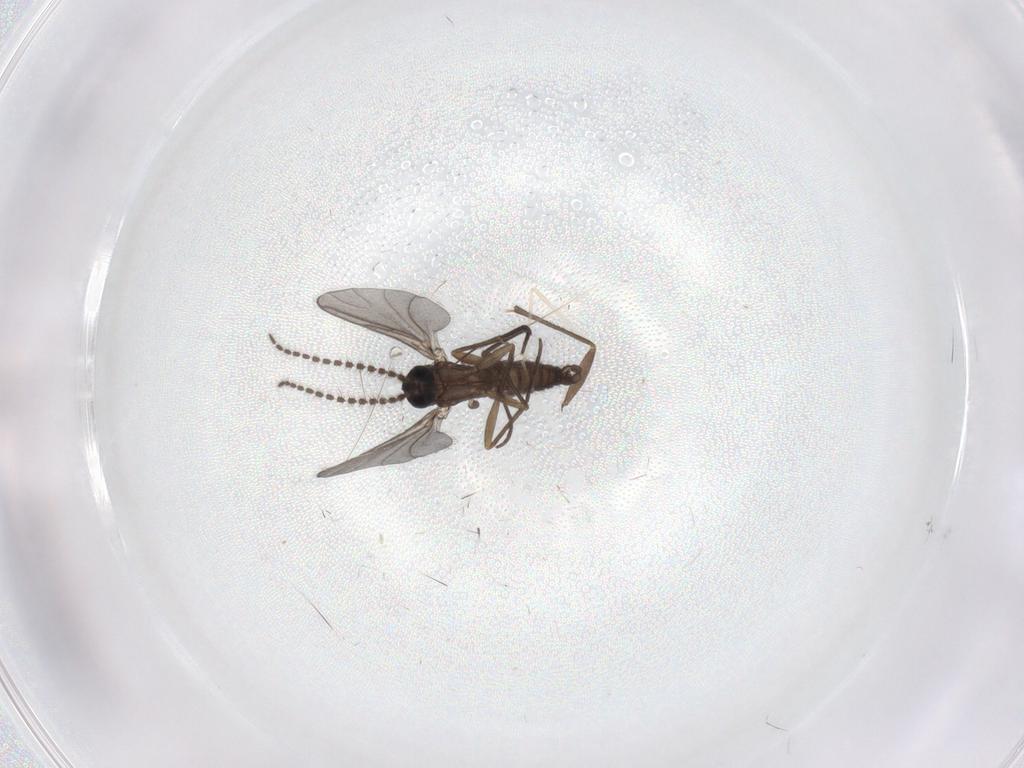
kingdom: Animalia
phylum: Arthropoda
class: Insecta
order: Diptera
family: Sciaridae
